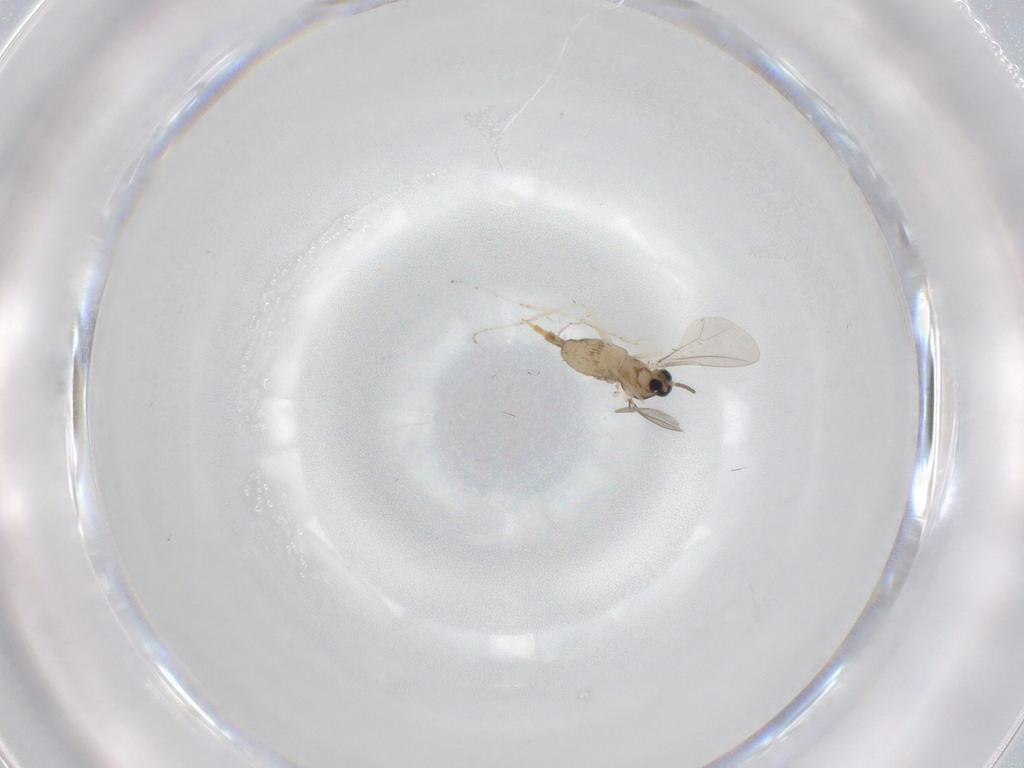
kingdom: Animalia
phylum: Arthropoda
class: Insecta
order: Diptera
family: Cecidomyiidae
